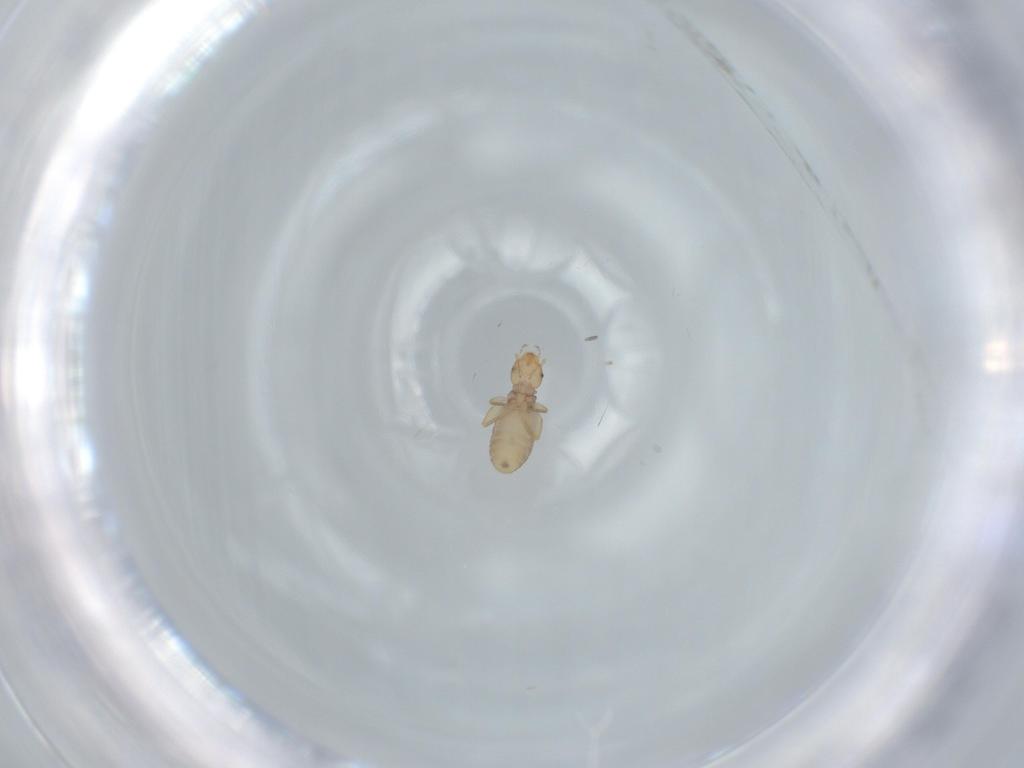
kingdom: Animalia
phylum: Arthropoda
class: Insecta
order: Psocodea
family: Liposcelididae
